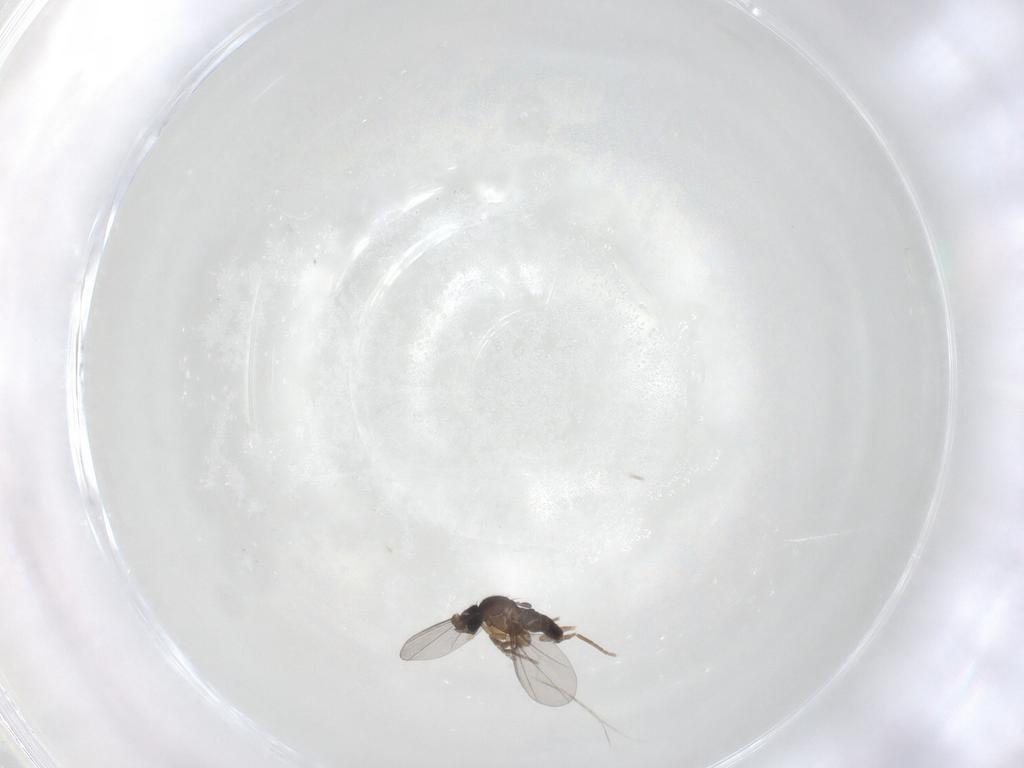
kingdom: Animalia
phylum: Arthropoda
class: Insecta
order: Diptera
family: Phoridae
